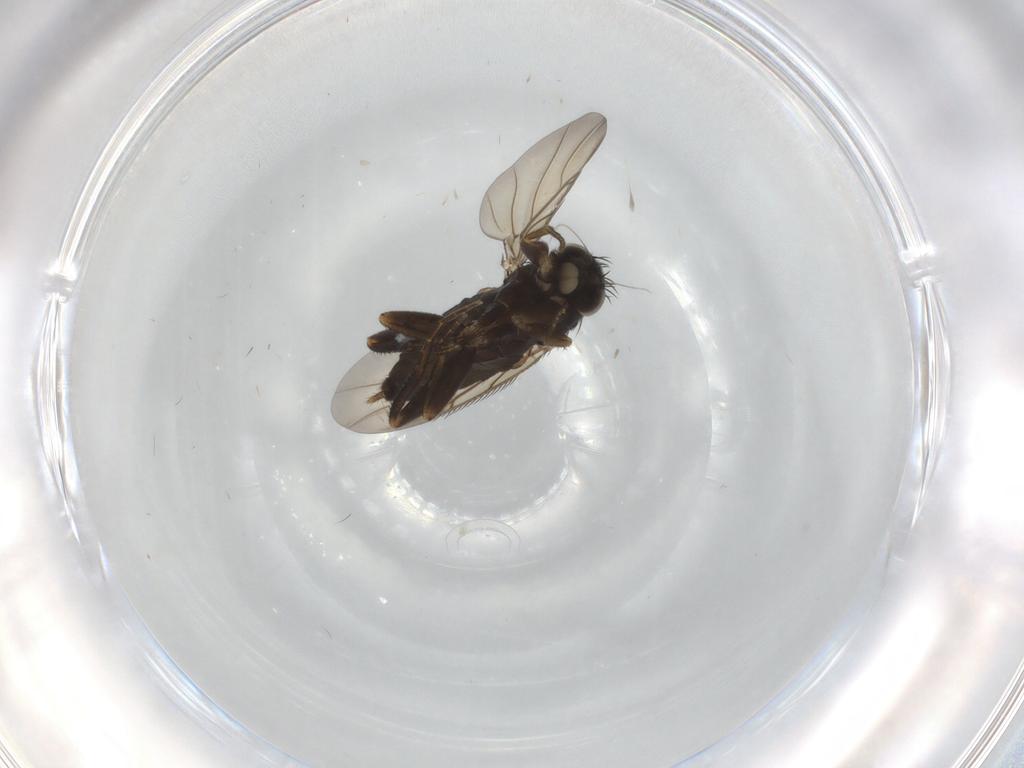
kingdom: Animalia
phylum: Arthropoda
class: Insecta
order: Diptera
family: Phoridae
